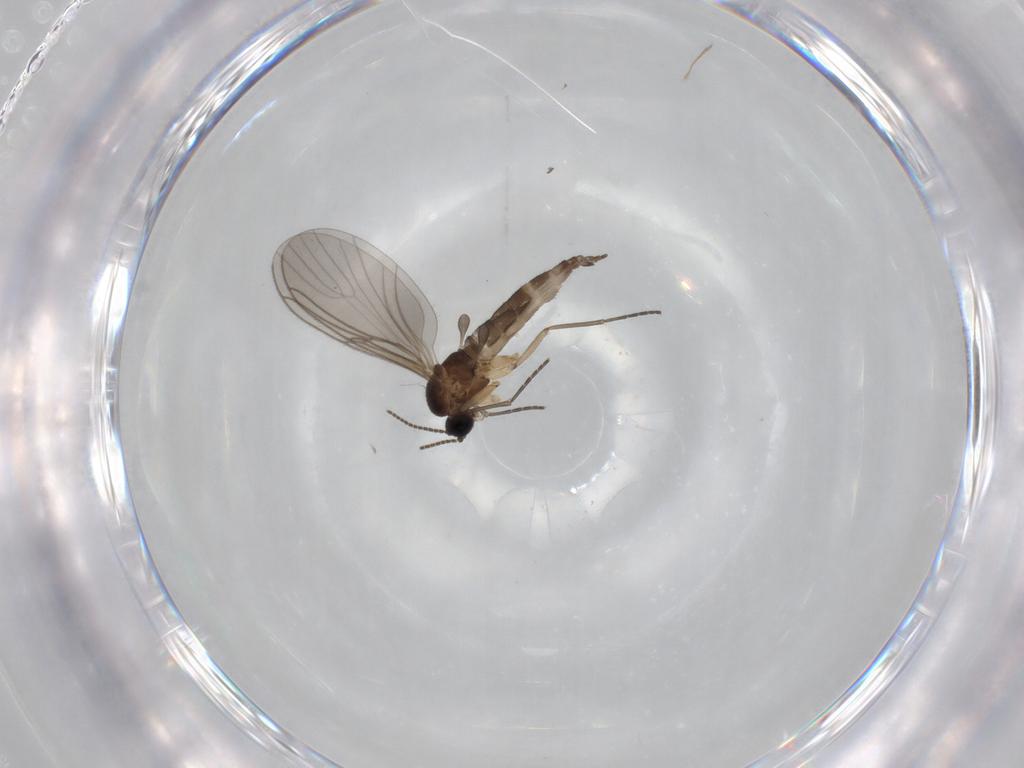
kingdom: Animalia
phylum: Arthropoda
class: Insecta
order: Diptera
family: Sciaridae
